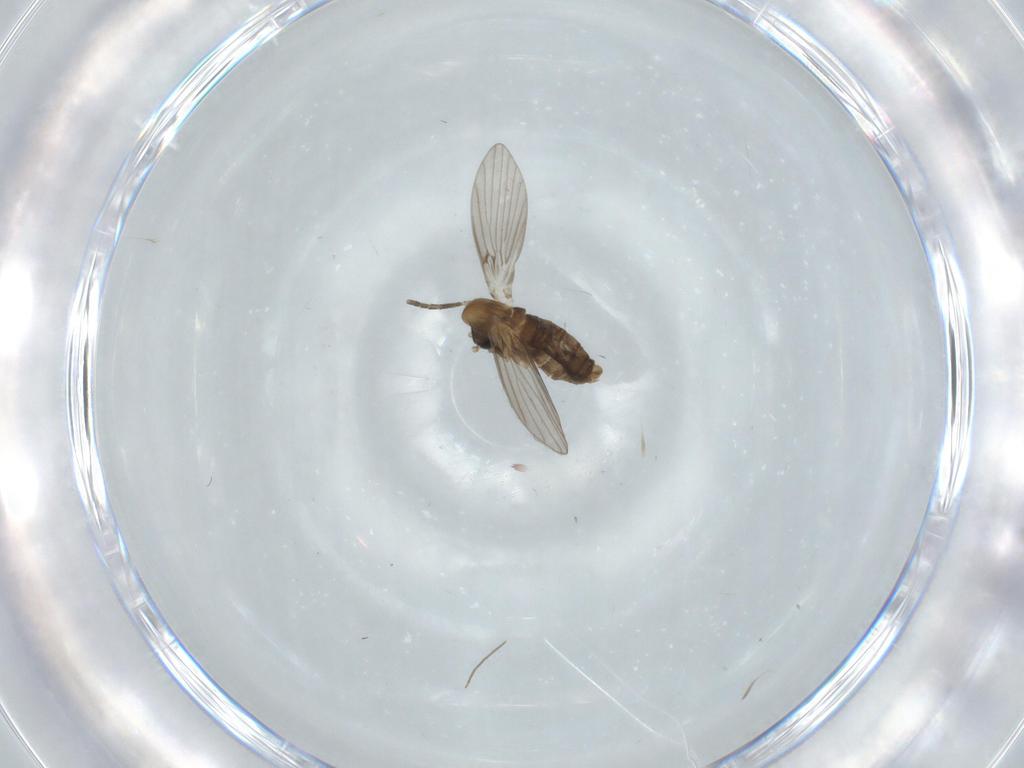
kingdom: Animalia
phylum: Arthropoda
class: Insecta
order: Diptera
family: Psychodidae
